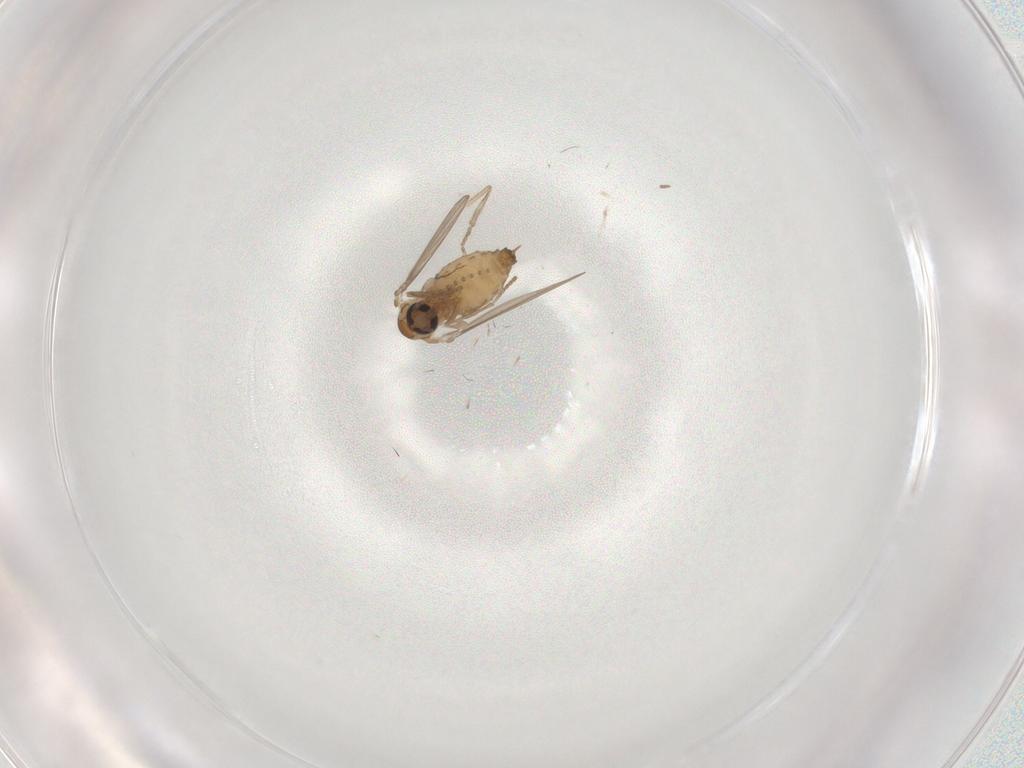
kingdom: Animalia
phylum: Arthropoda
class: Insecta
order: Diptera
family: Psychodidae
